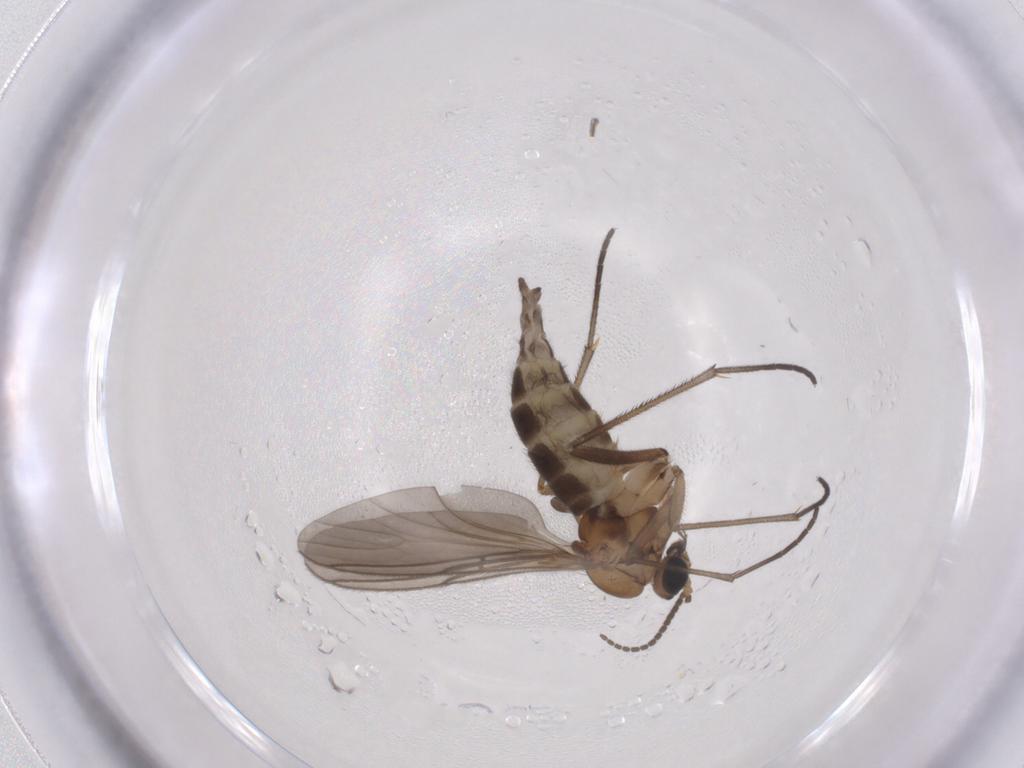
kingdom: Animalia
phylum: Arthropoda
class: Insecta
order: Diptera
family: Sciaridae
